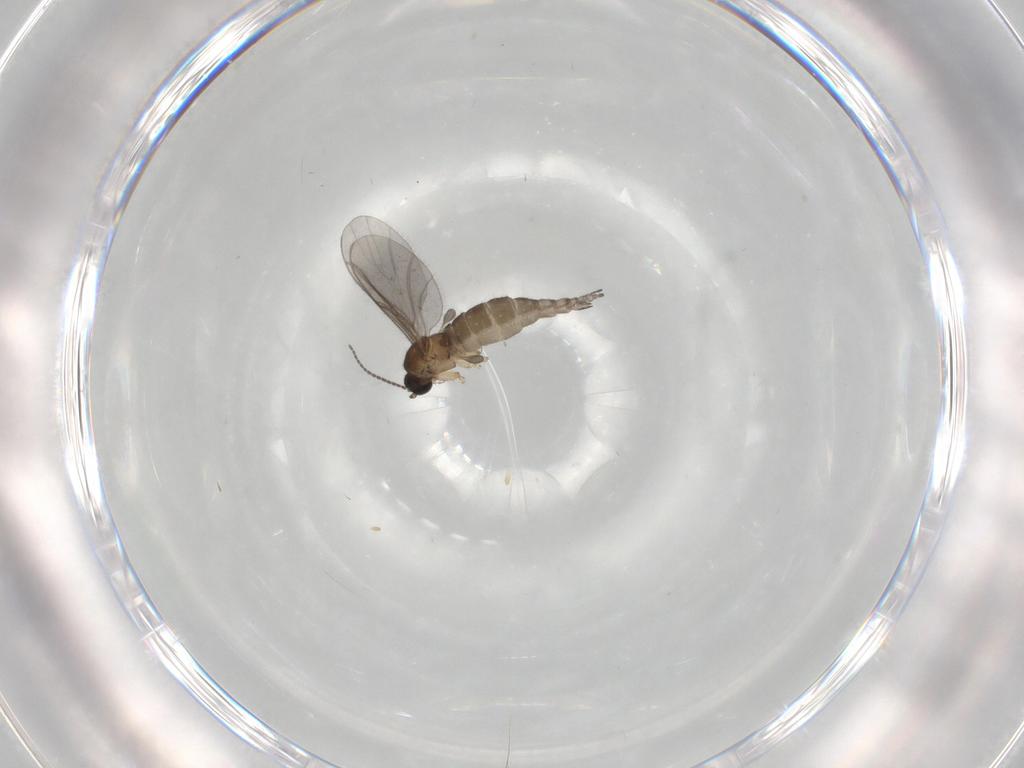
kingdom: Animalia
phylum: Arthropoda
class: Insecta
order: Diptera
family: Sciaridae
